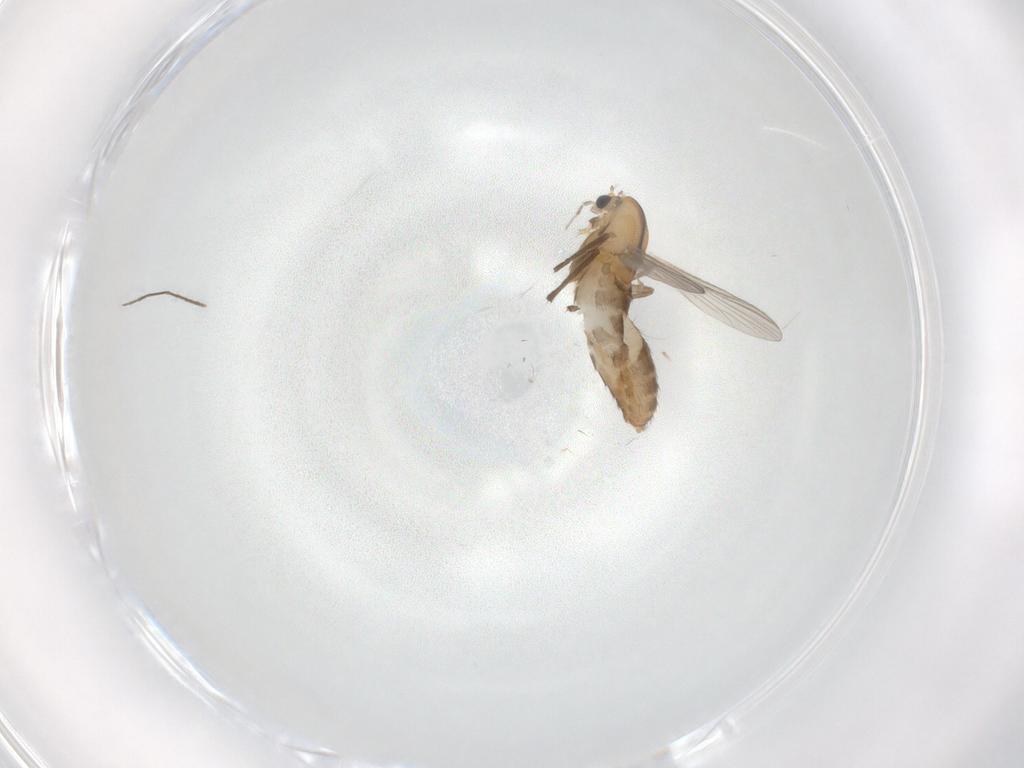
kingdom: Animalia
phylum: Arthropoda
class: Insecta
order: Diptera
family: Chironomidae
